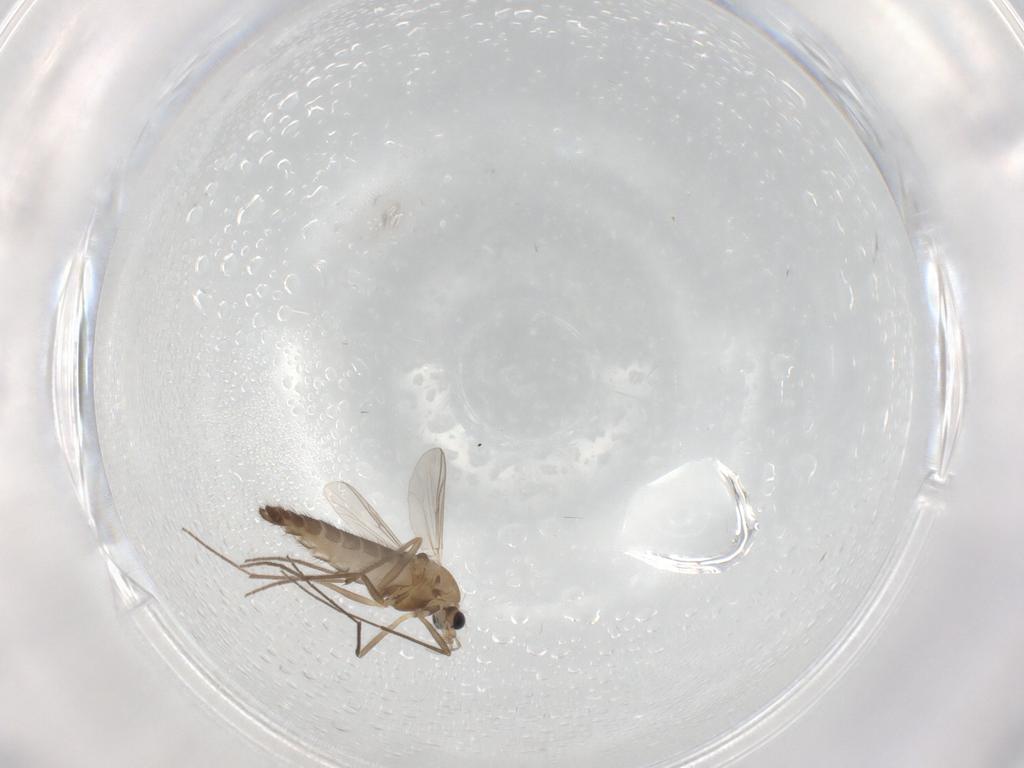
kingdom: Animalia
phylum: Arthropoda
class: Insecta
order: Diptera
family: Chironomidae
